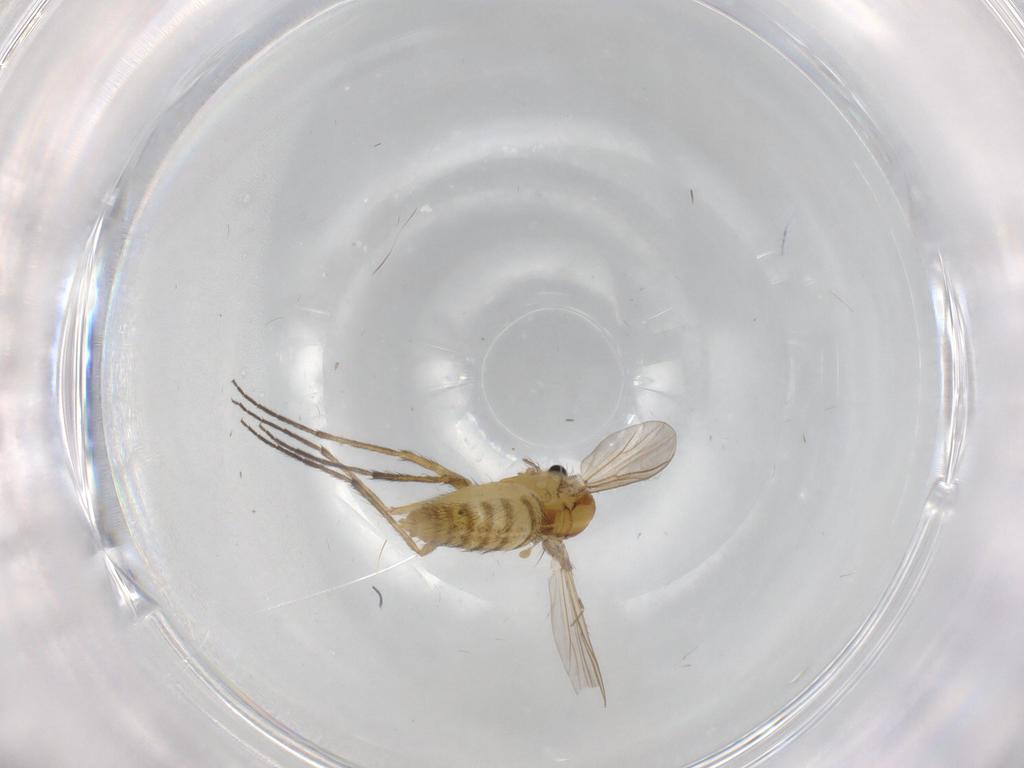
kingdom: Animalia
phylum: Arthropoda
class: Insecta
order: Diptera
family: Chironomidae
